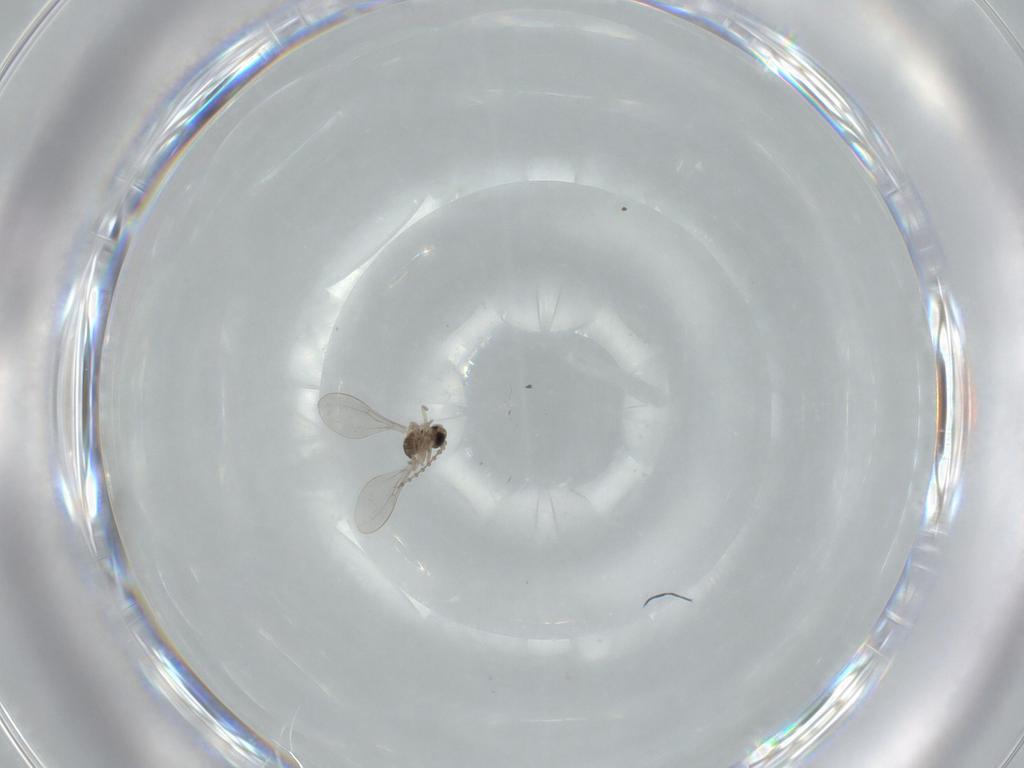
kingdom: Animalia
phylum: Arthropoda
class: Insecta
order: Diptera
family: Cecidomyiidae
